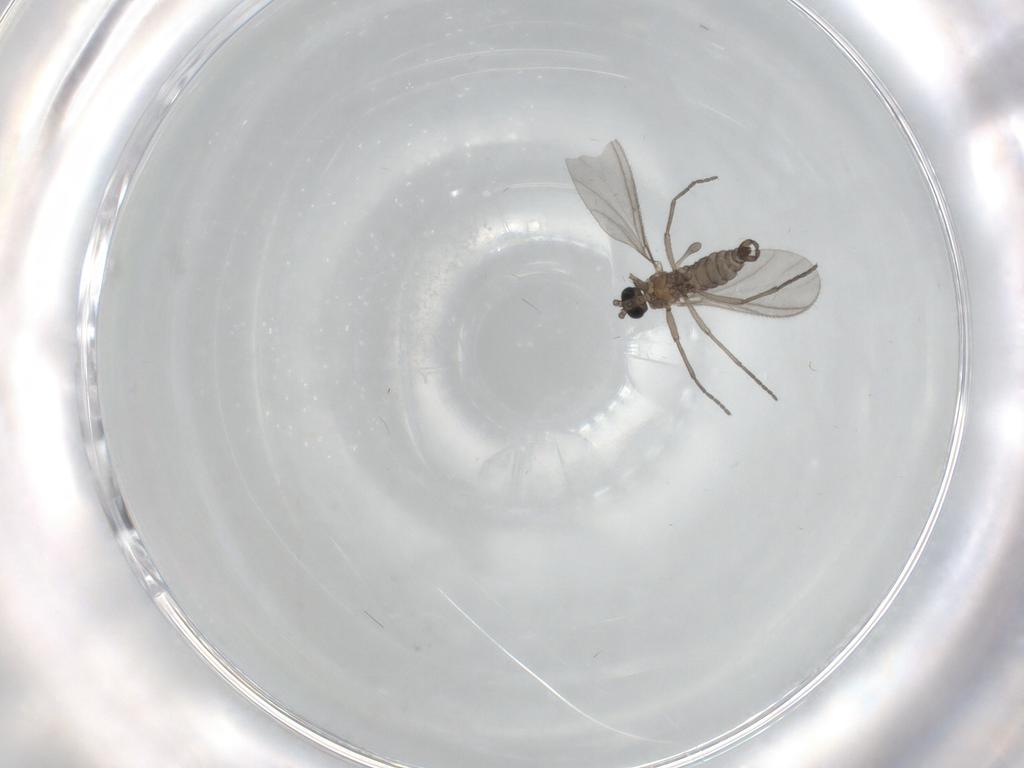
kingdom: Animalia
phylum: Arthropoda
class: Insecta
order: Diptera
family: Sciaridae
